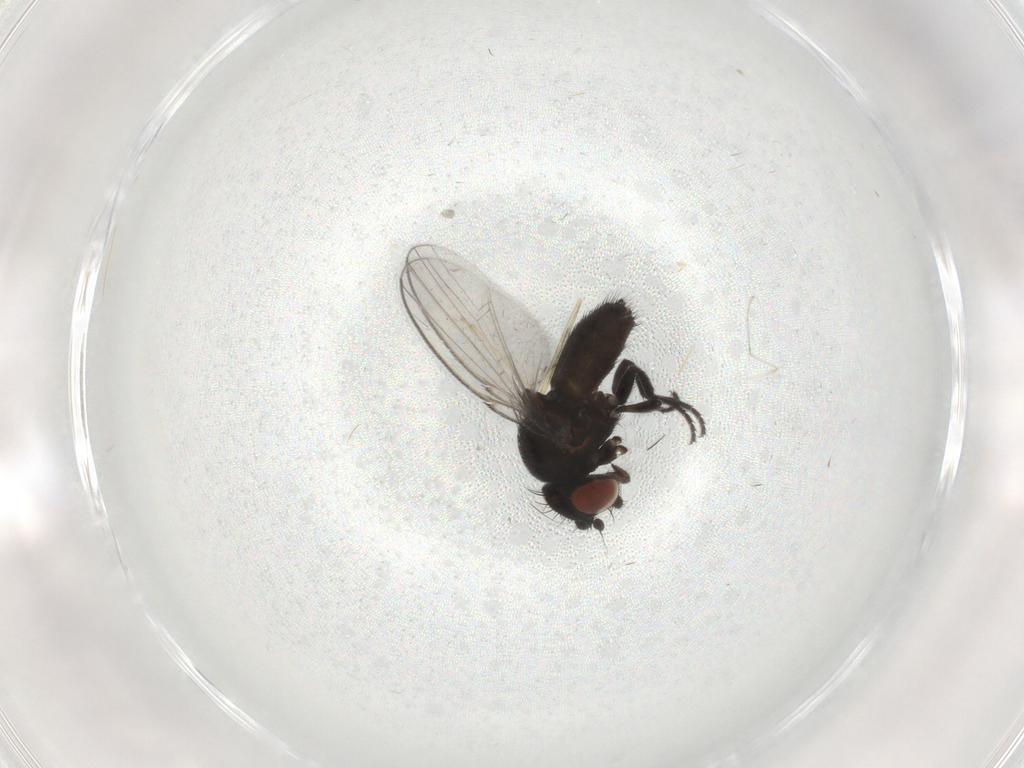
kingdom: Animalia
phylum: Arthropoda
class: Insecta
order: Diptera
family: Milichiidae
